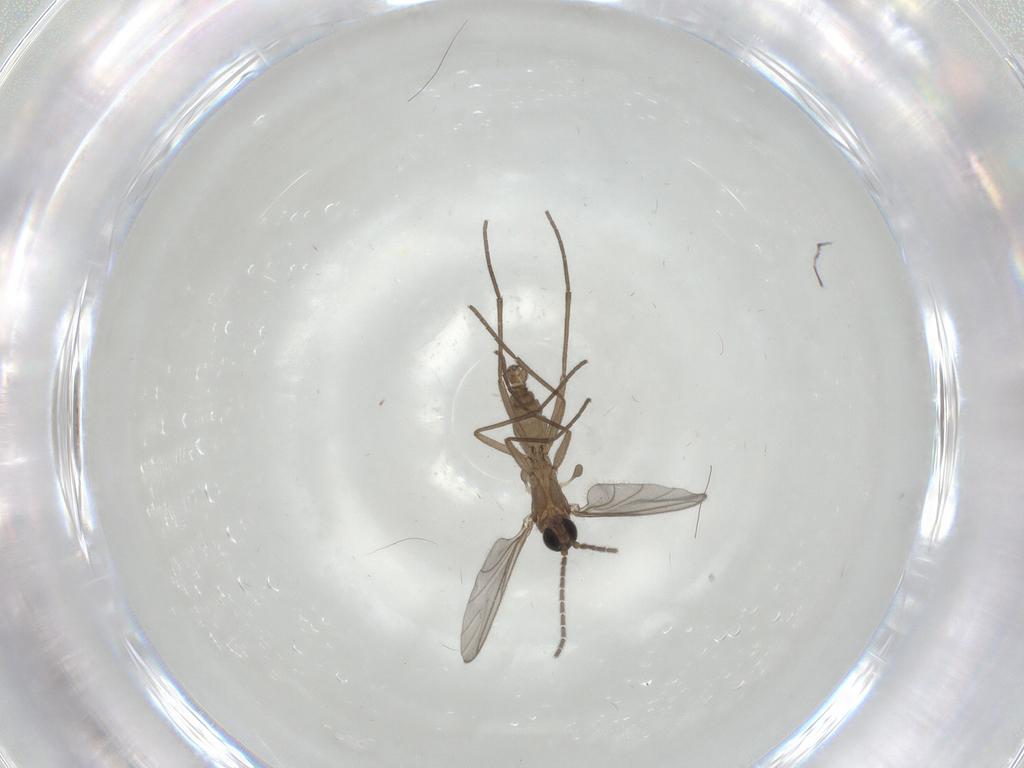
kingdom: Animalia
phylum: Arthropoda
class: Insecta
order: Diptera
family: Sciaridae
